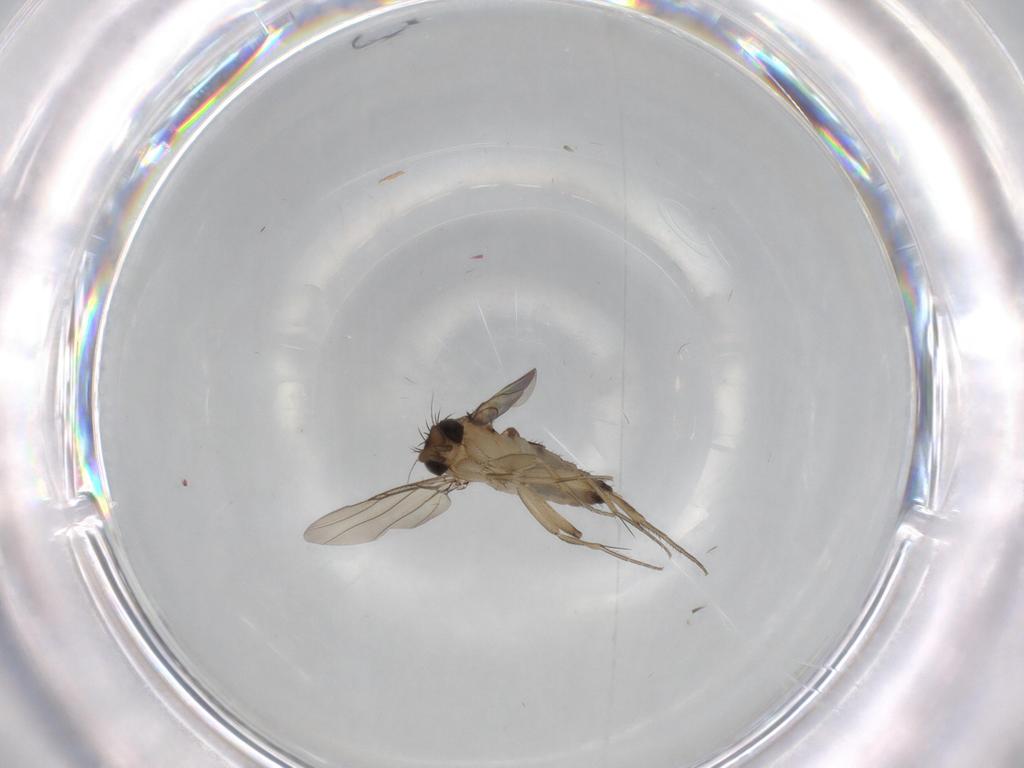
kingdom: Animalia
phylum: Arthropoda
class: Insecta
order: Diptera
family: Phoridae
